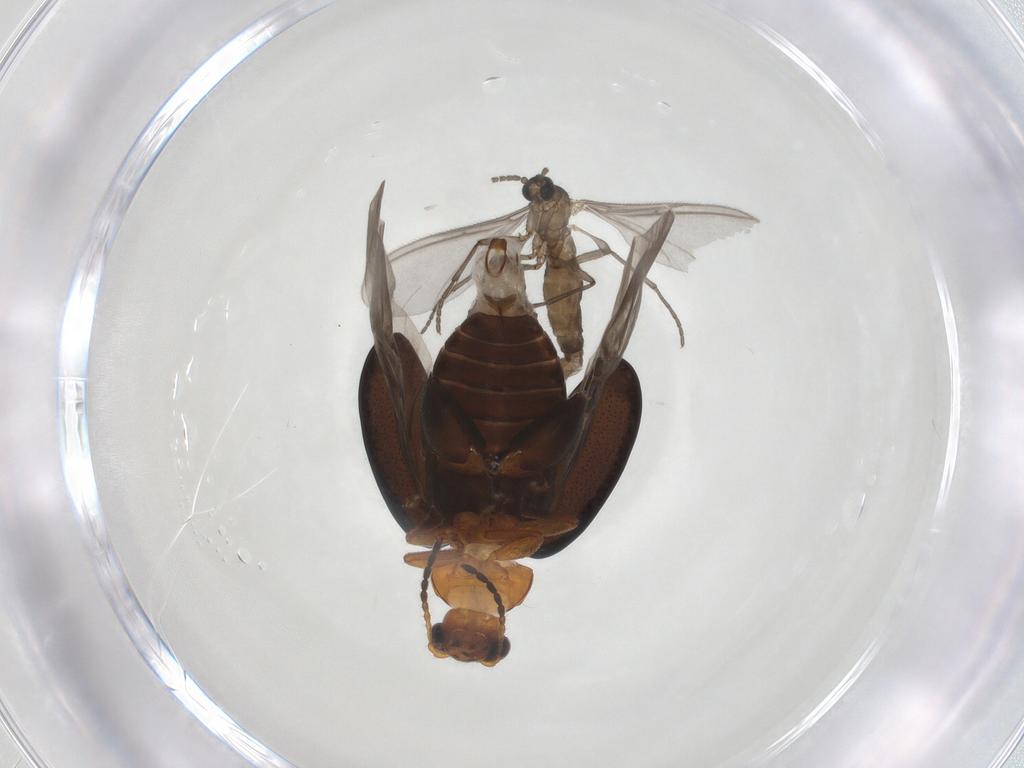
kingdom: Animalia
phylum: Arthropoda
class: Insecta
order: Coleoptera
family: Chrysomelidae
